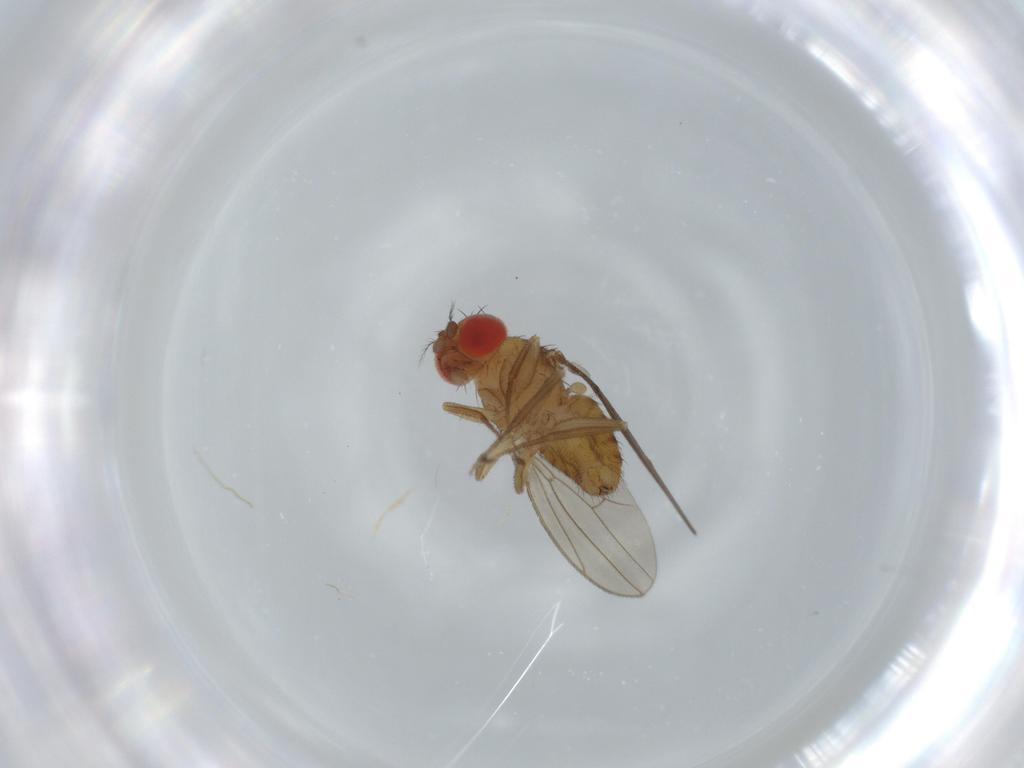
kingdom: Animalia
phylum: Arthropoda
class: Insecta
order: Diptera
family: Drosophilidae
